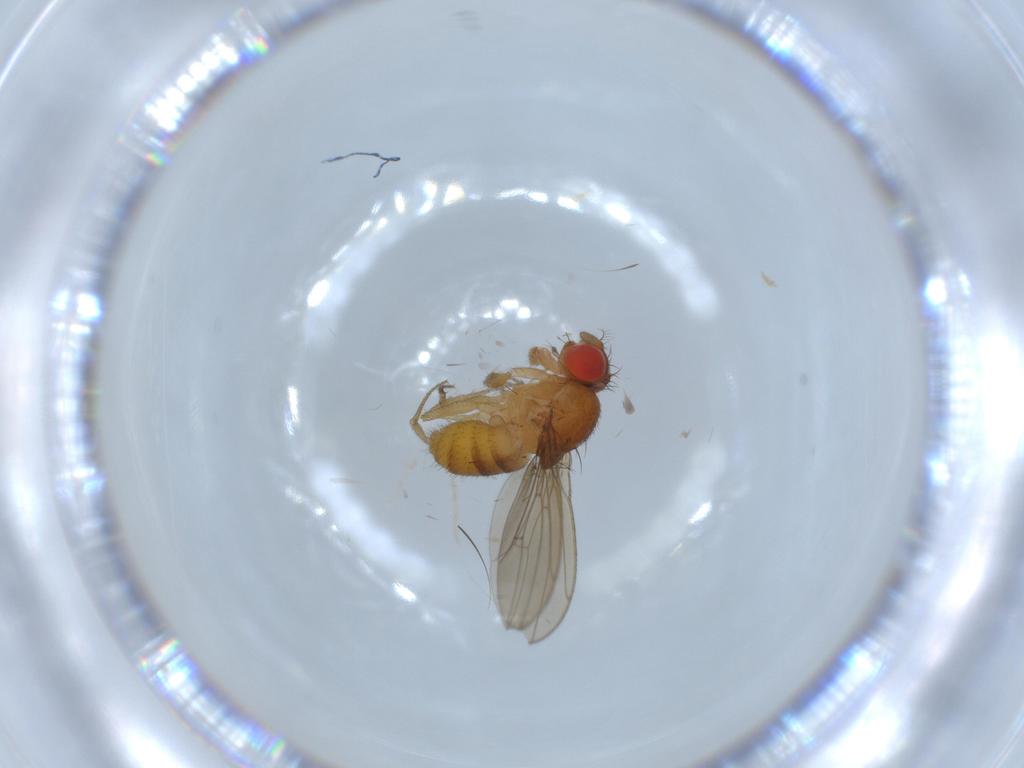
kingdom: Animalia
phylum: Arthropoda
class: Insecta
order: Diptera
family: Drosophilidae
